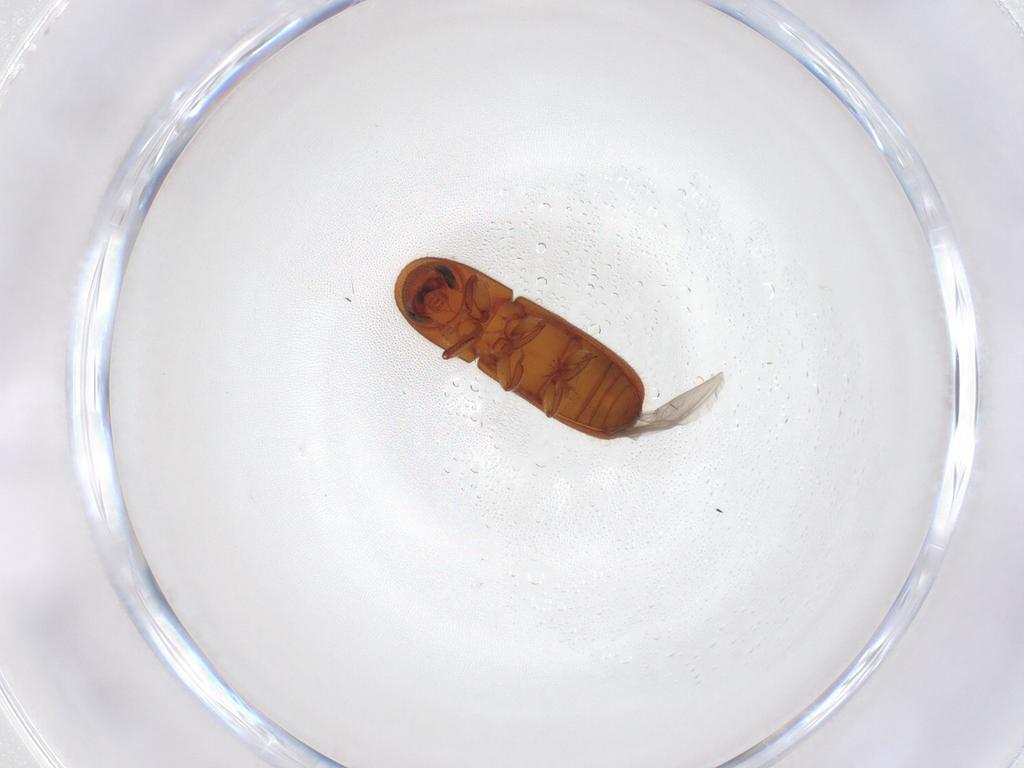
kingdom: Animalia
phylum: Arthropoda
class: Insecta
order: Coleoptera
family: Curculionidae
